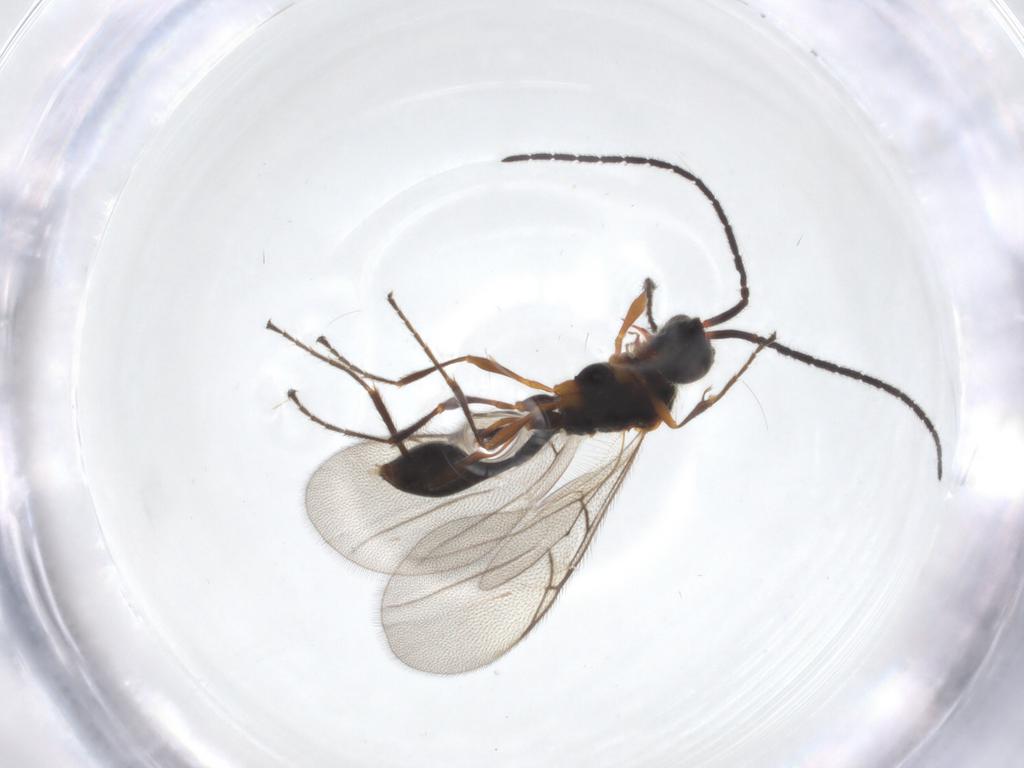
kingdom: Animalia
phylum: Arthropoda
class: Insecta
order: Hymenoptera
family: Diapriidae
